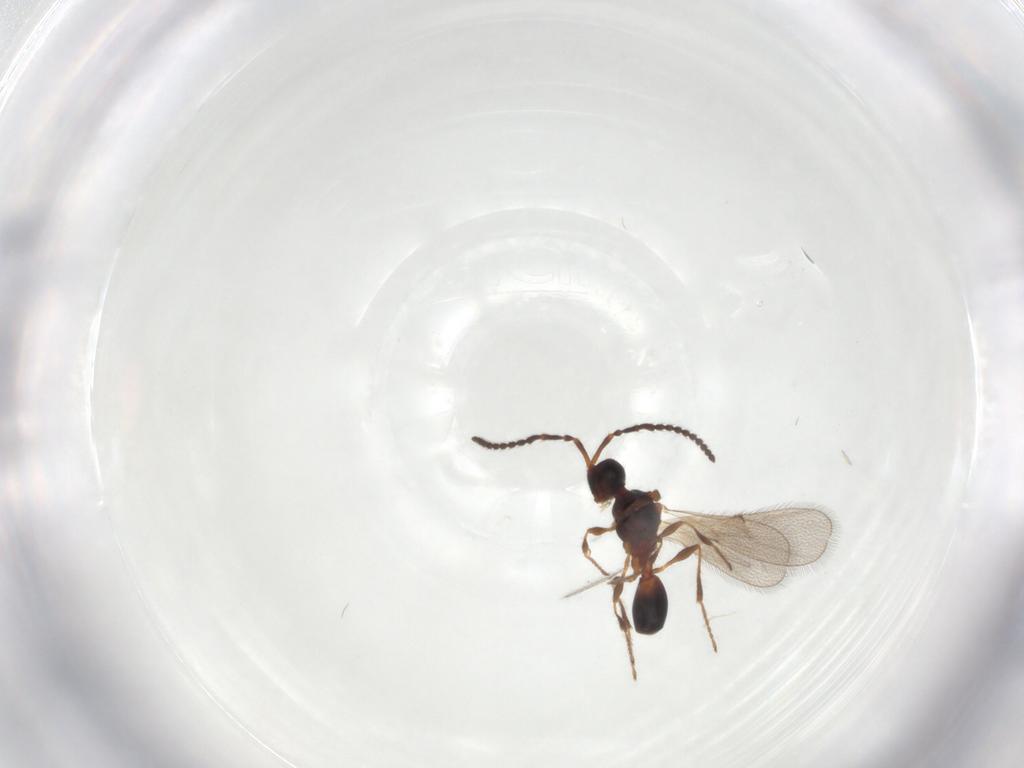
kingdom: Animalia
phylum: Arthropoda
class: Insecta
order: Hymenoptera
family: Diapriidae
